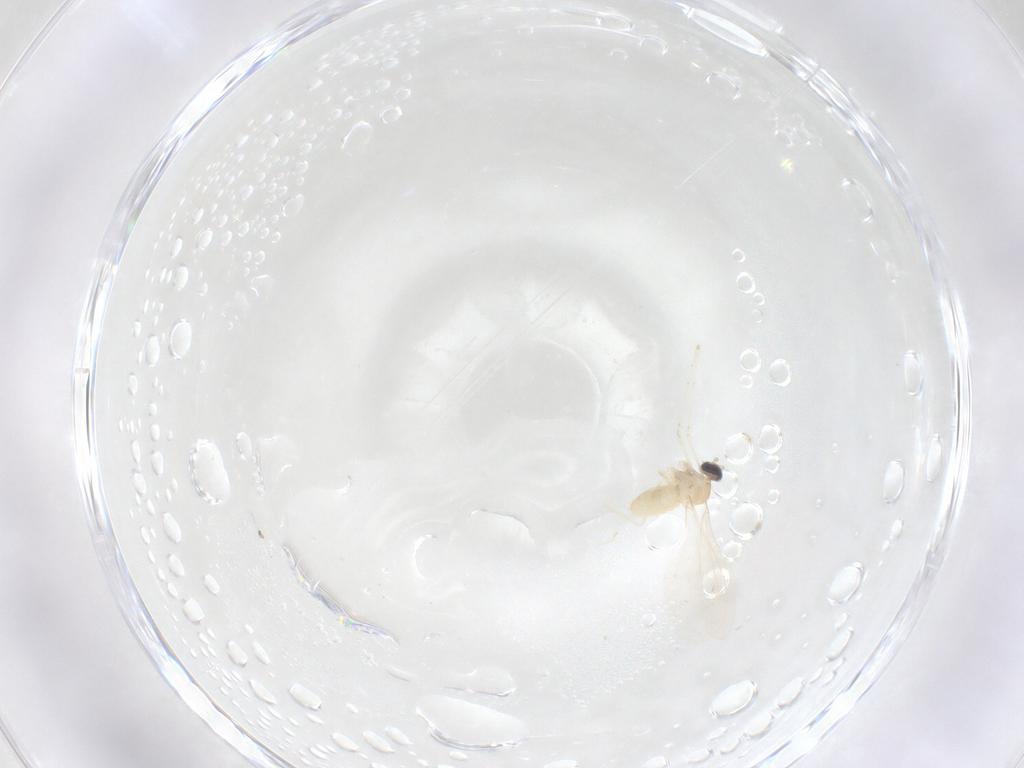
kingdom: Animalia
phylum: Arthropoda
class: Insecta
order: Diptera
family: Cecidomyiidae
